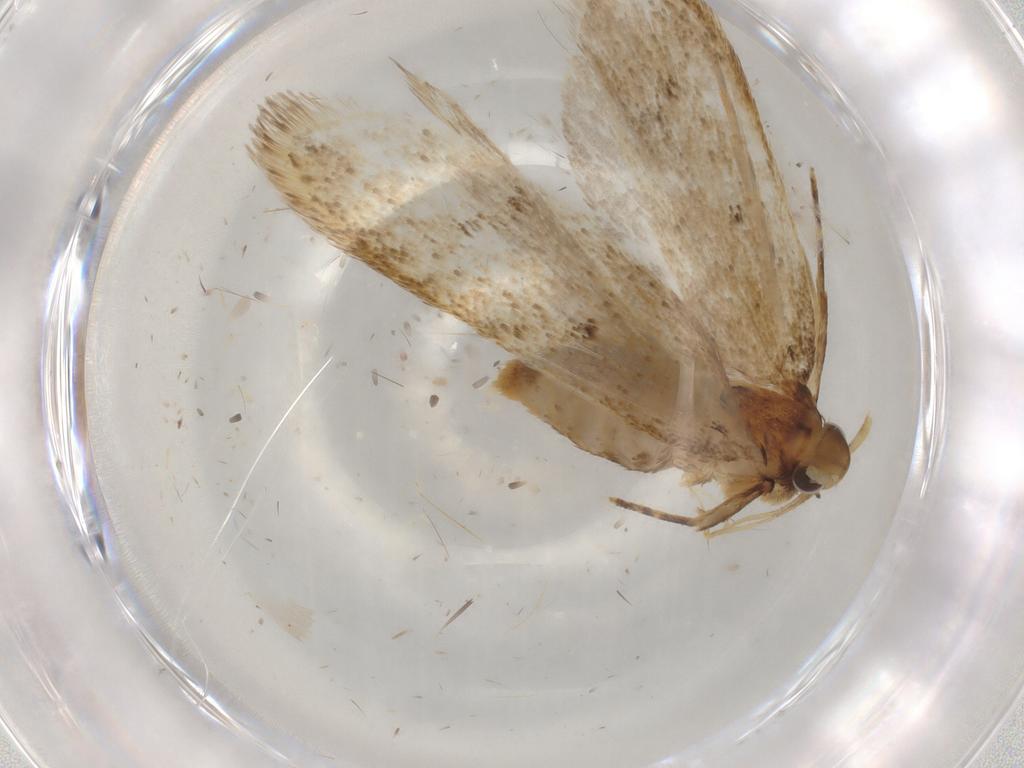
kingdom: Animalia
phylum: Arthropoda
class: Insecta
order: Lepidoptera
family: Lecithoceridae
